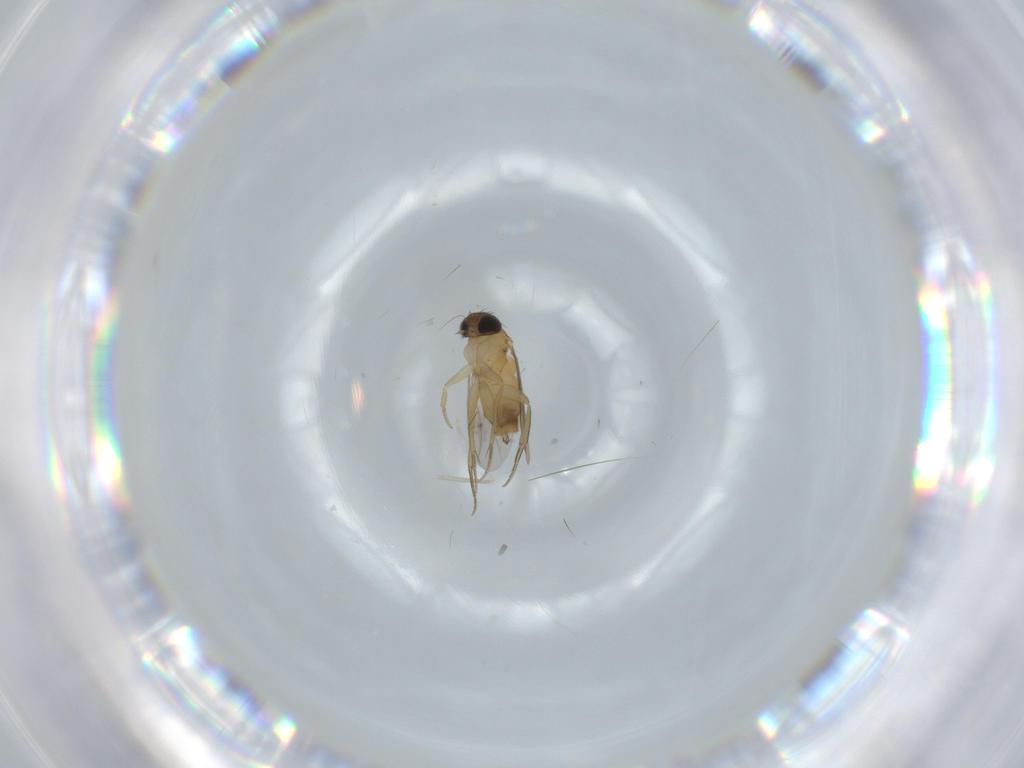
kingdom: Animalia
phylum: Arthropoda
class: Insecta
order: Diptera
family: Phoridae
